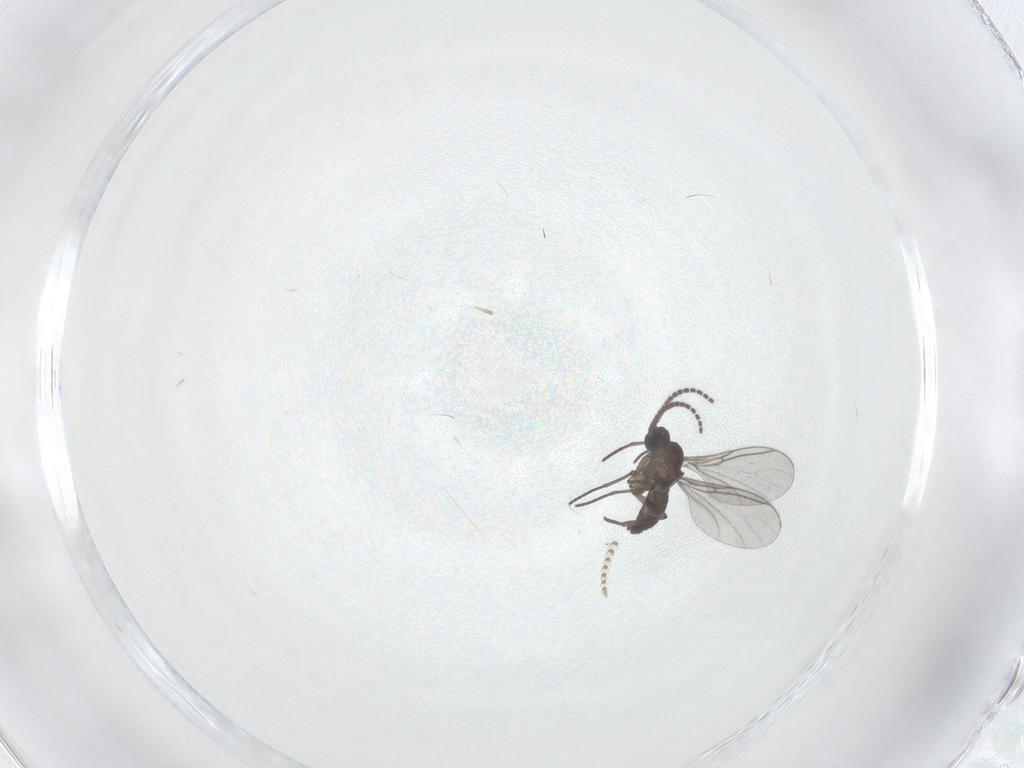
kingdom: Animalia
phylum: Arthropoda
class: Insecta
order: Diptera
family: Psychodidae
